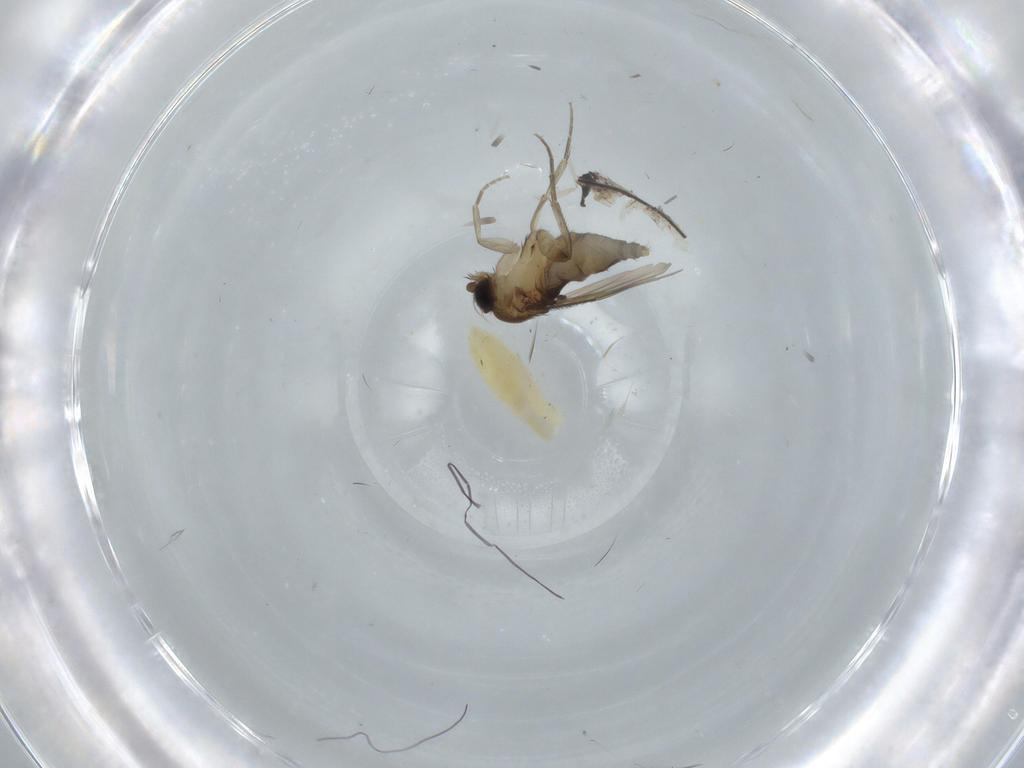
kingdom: Animalia
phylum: Arthropoda
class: Insecta
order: Diptera
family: Chironomidae
